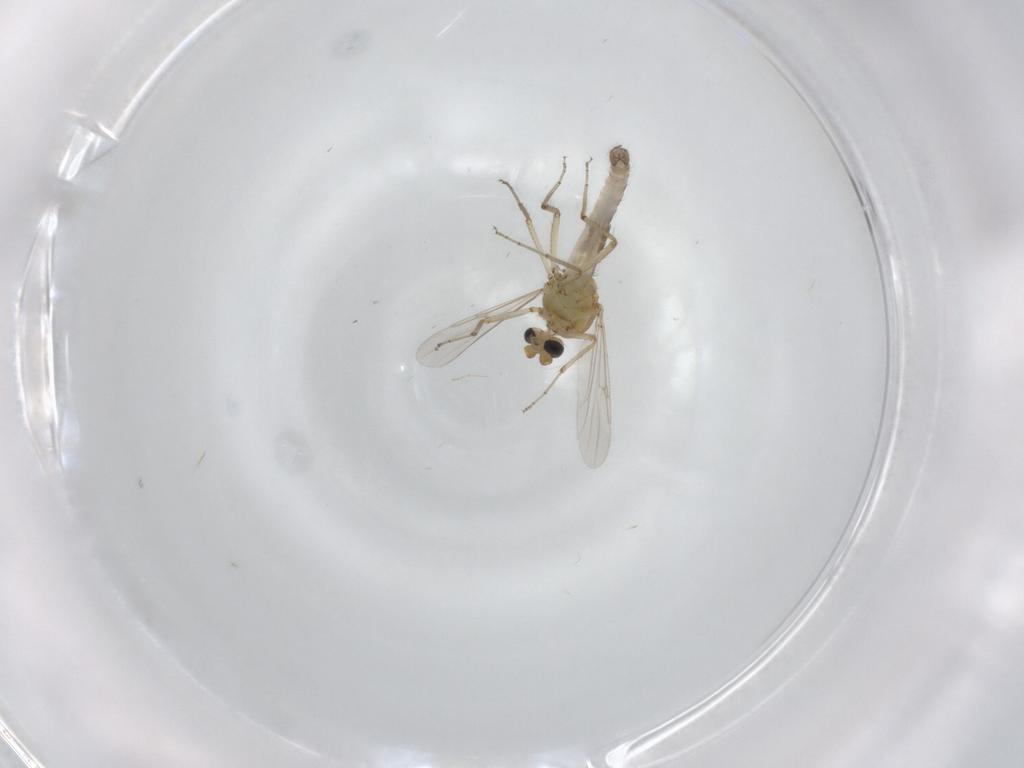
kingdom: Animalia
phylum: Arthropoda
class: Insecta
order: Diptera
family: Ceratopogonidae
